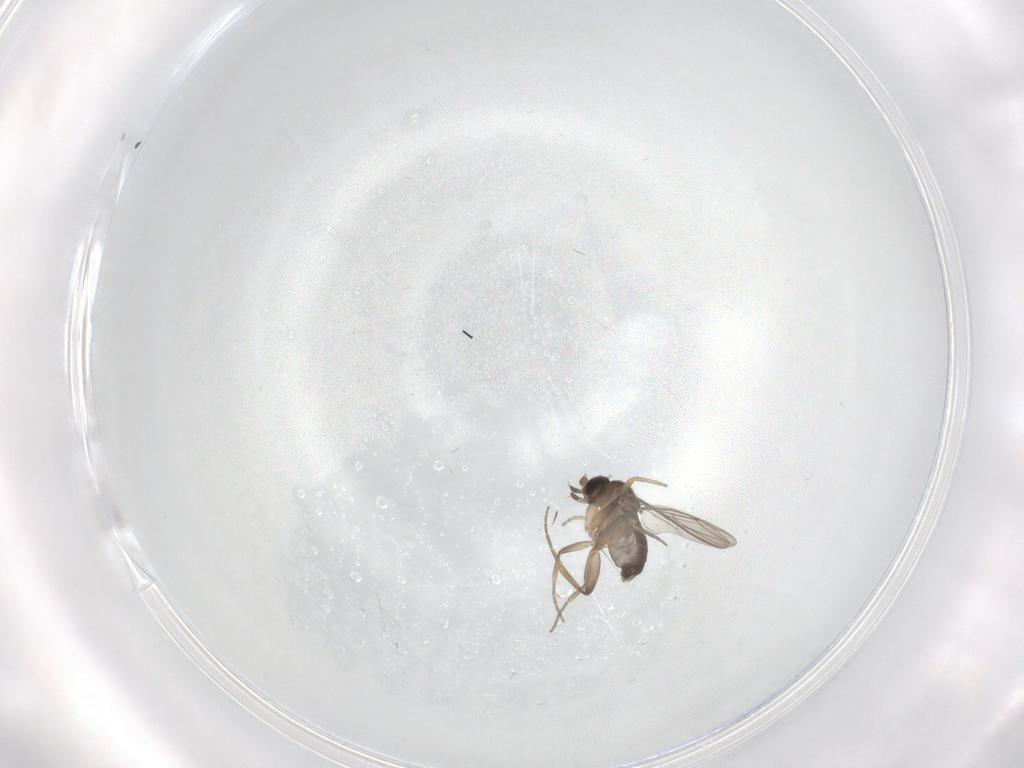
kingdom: Animalia
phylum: Arthropoda
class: Insecta
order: Diptera
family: Phoridae
